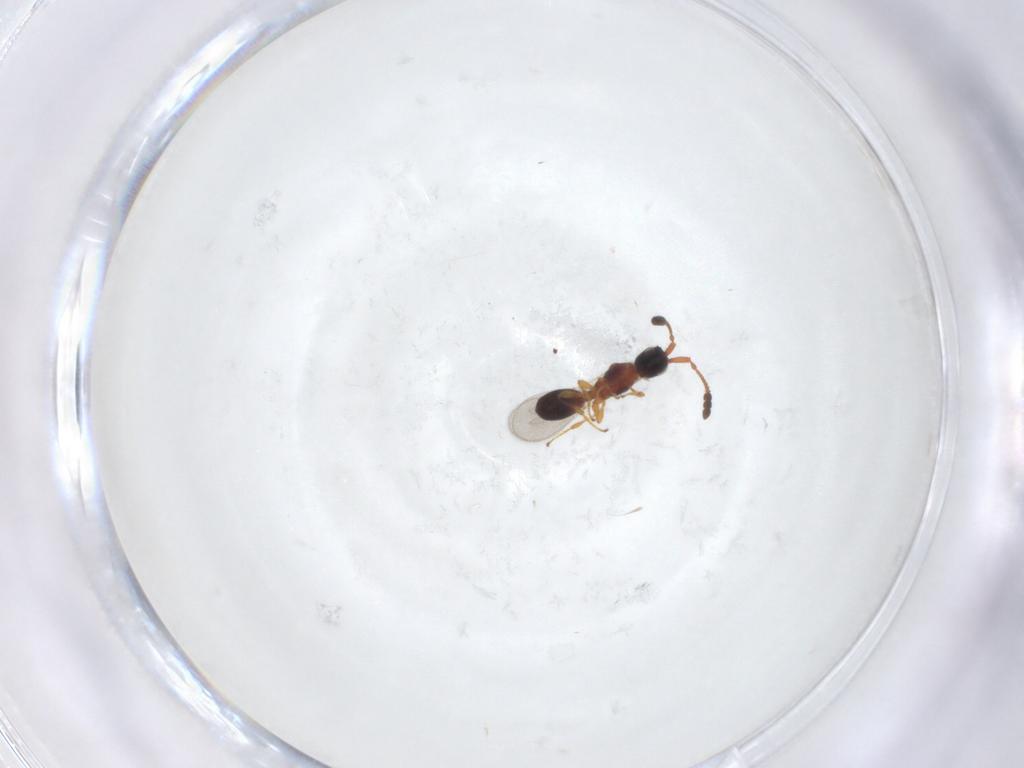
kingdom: Animalia
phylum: Arthropoda
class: Insecta
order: Hymenoptera
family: Diapriidae
